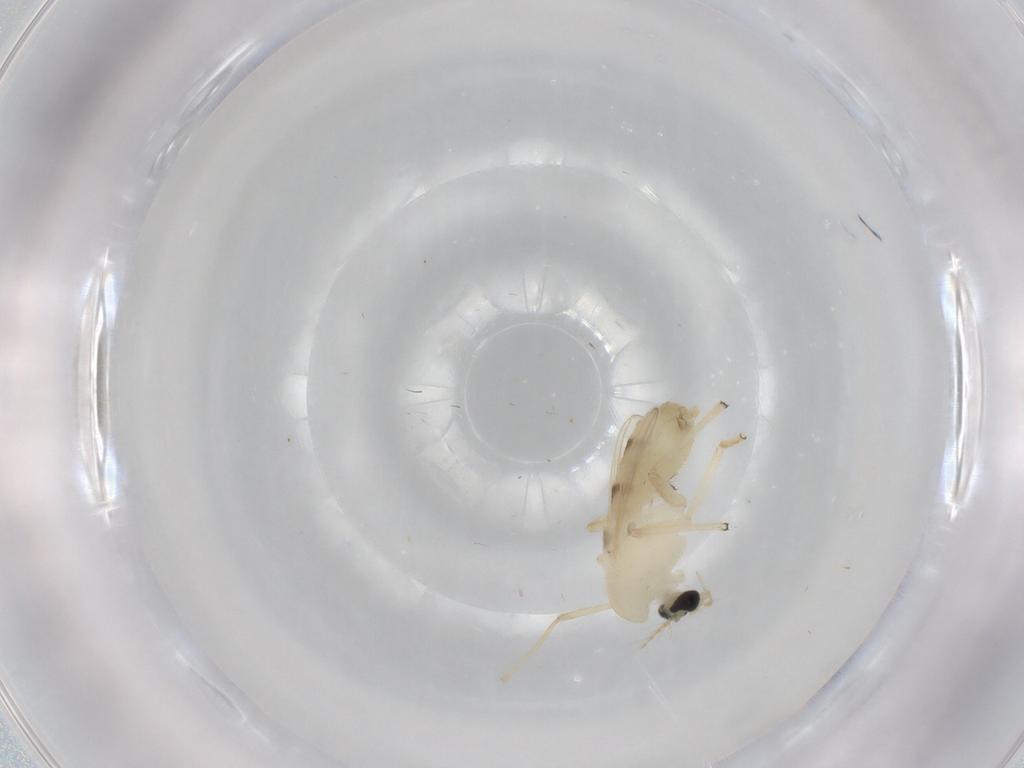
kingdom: Animalia
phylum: Arthropoda
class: Insecta
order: Diptera
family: Chironomidae
